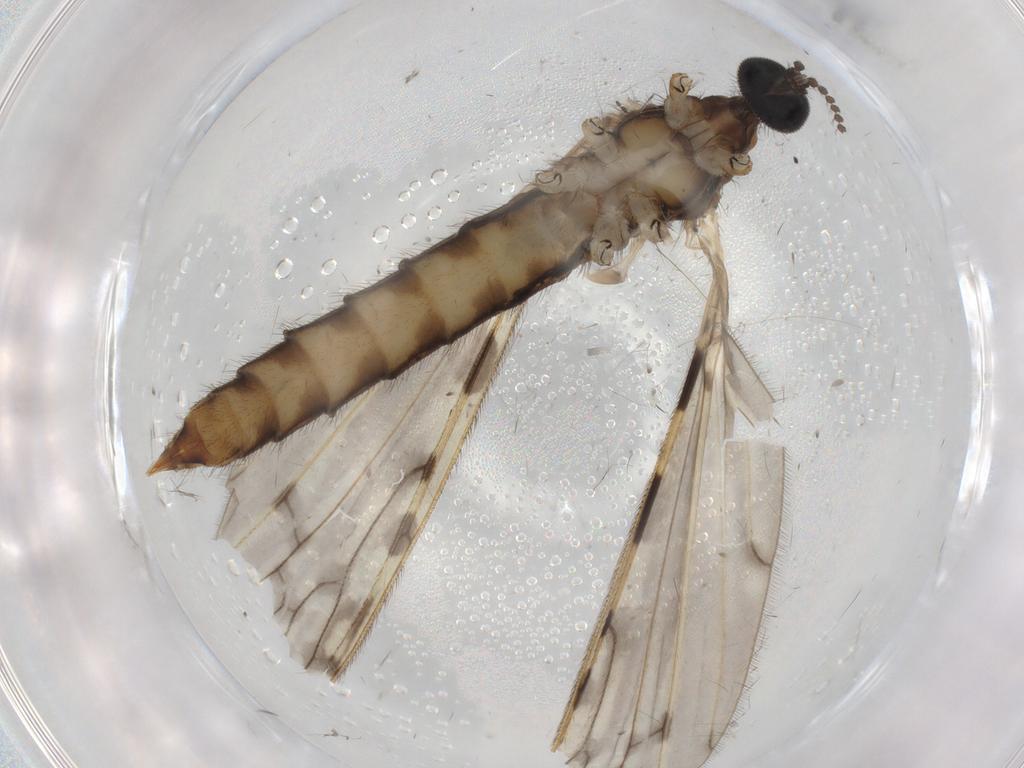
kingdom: Animalia
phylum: Arthropoda
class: Insecta
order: Diptera
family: Limoniidae
